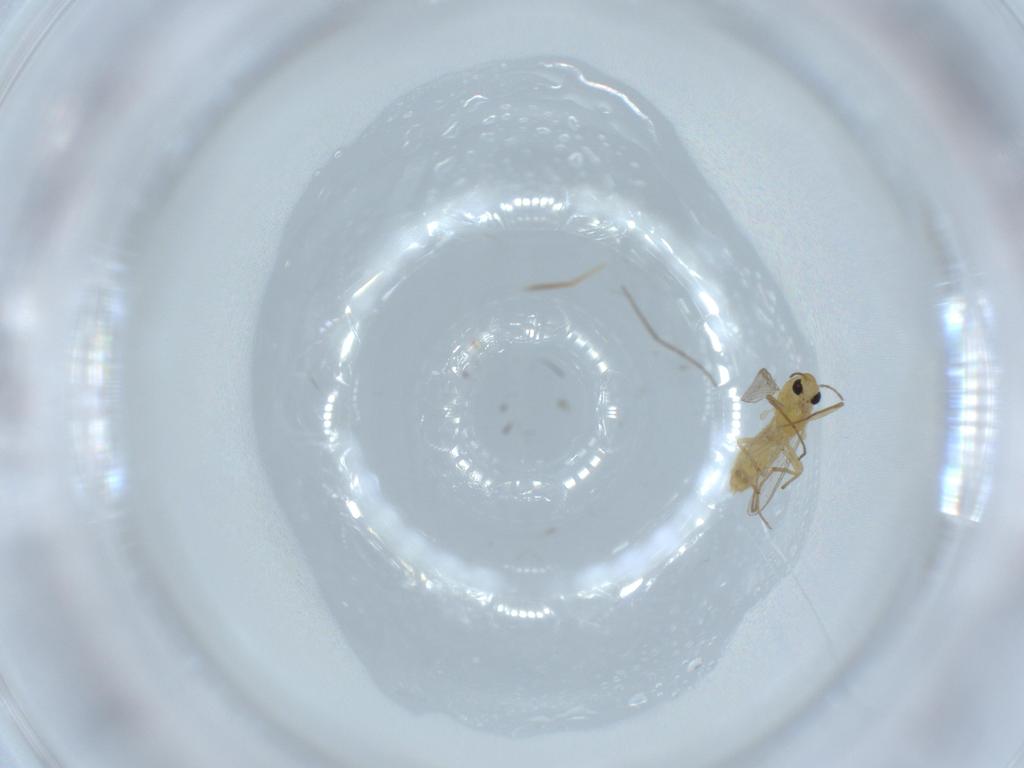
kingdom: Animalia
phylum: Arthropoda
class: Insecta
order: Diptera
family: Chironomidae
